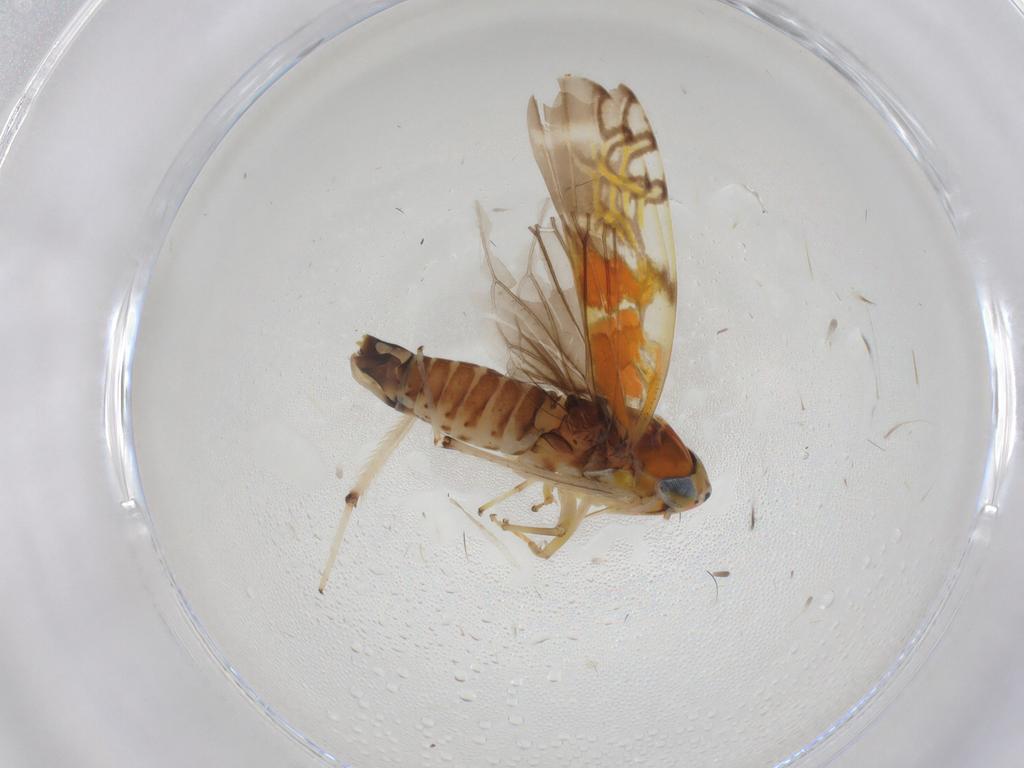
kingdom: Animalia
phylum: Arthropoda
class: Insecta
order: Hemiptera
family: Cicadellidae
